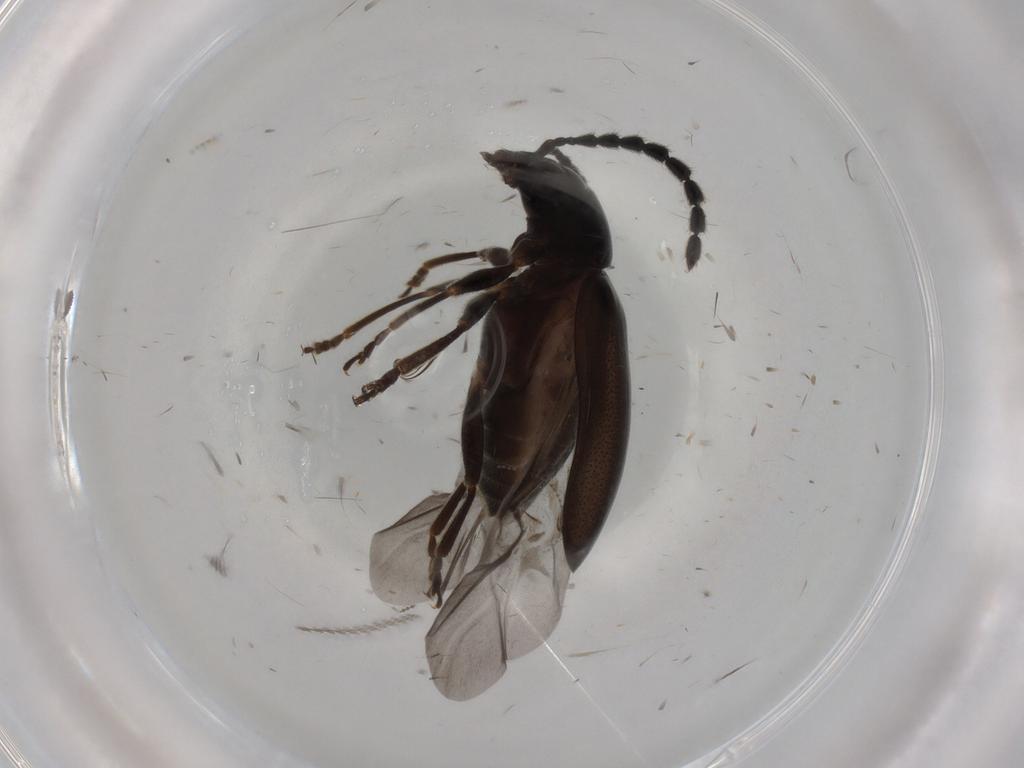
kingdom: Animalia
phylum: Arthropoda
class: Insecta
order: Coleoptera
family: Chrysomelidae
